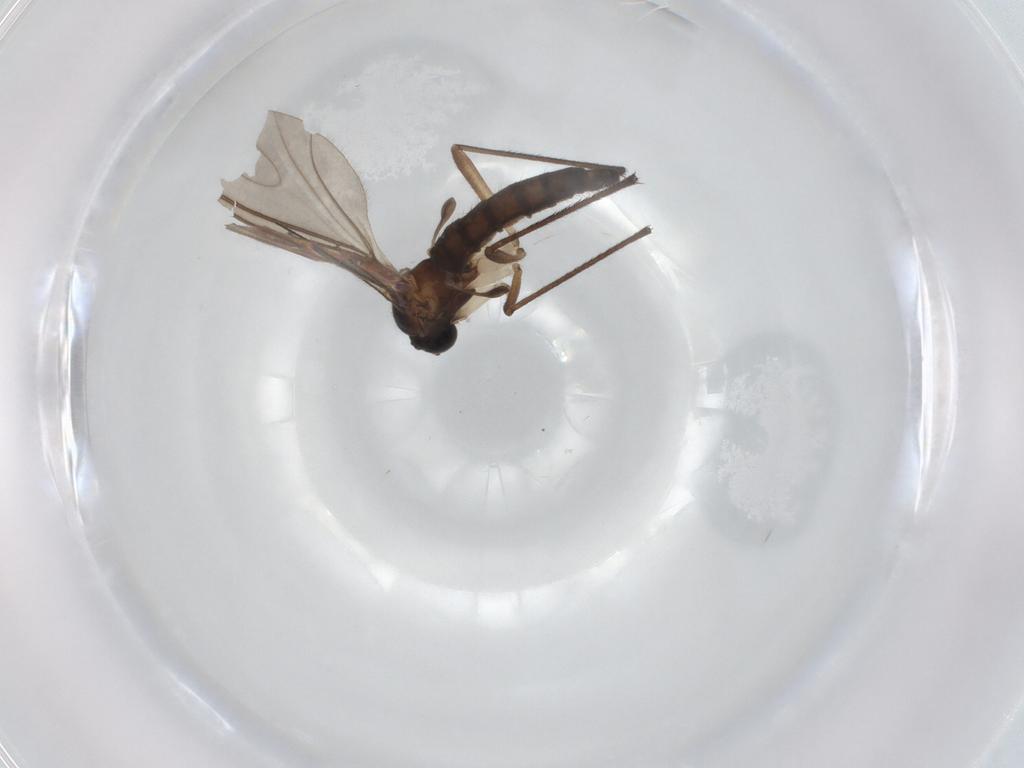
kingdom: Animalia
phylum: Arthropoda
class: Insecta
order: Diptera
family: Sciaridae
